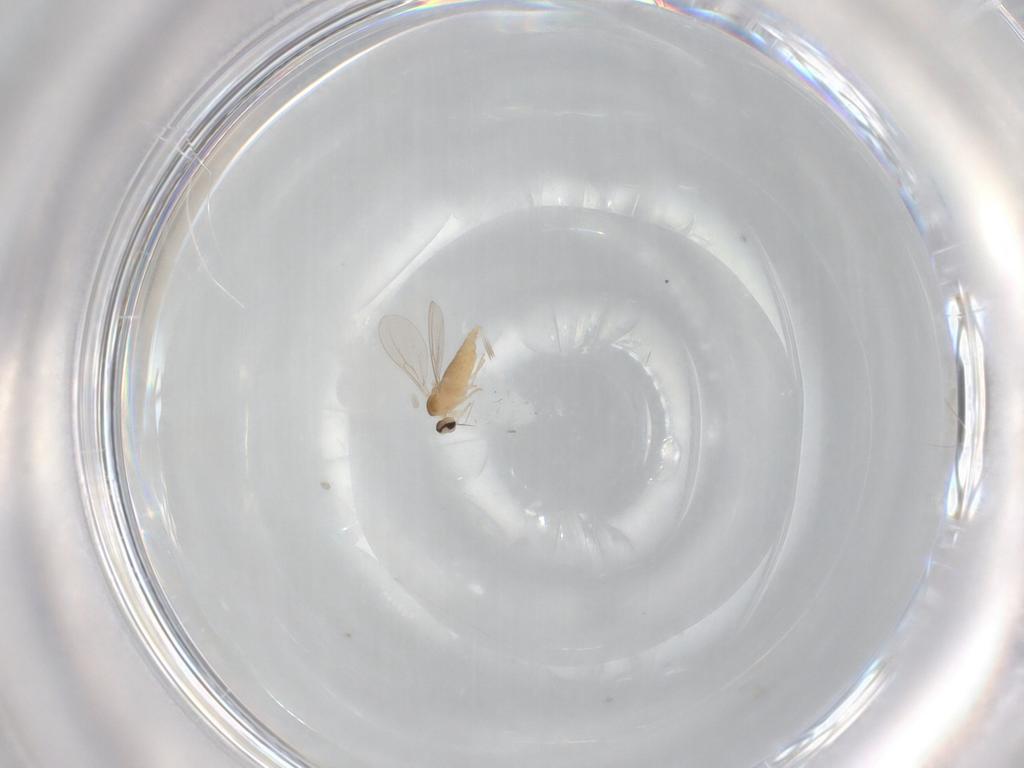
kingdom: Animalia
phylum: Arthropoda
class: Insecta
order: Diptera
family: Cecidomyiidae
